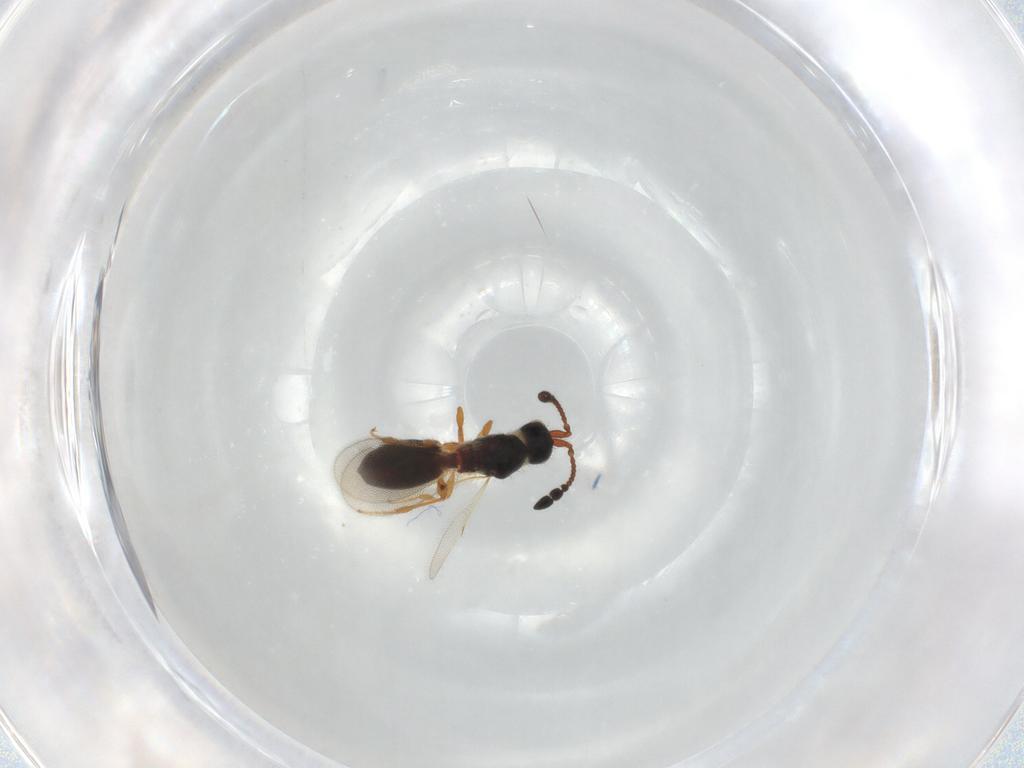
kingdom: Animalia
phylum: Arthropoda
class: Insecta
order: Hymenoptera
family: Diapriidae
